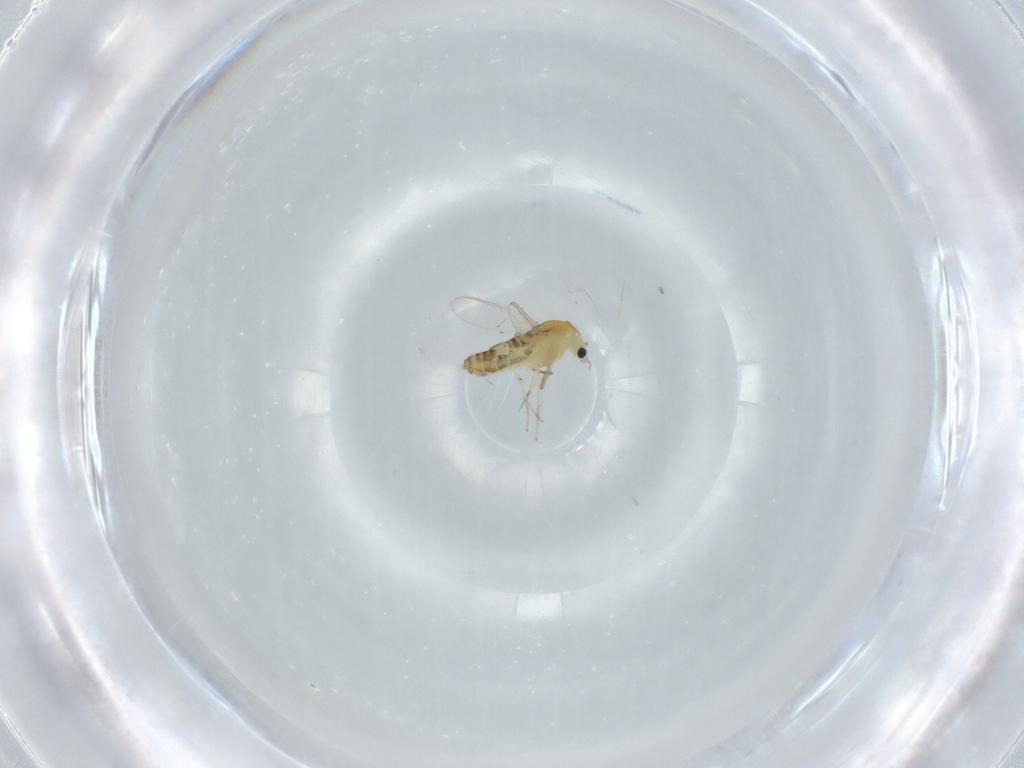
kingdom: Animalia
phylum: Arthropoda
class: Insecta
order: Diptera
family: Chironomidae
